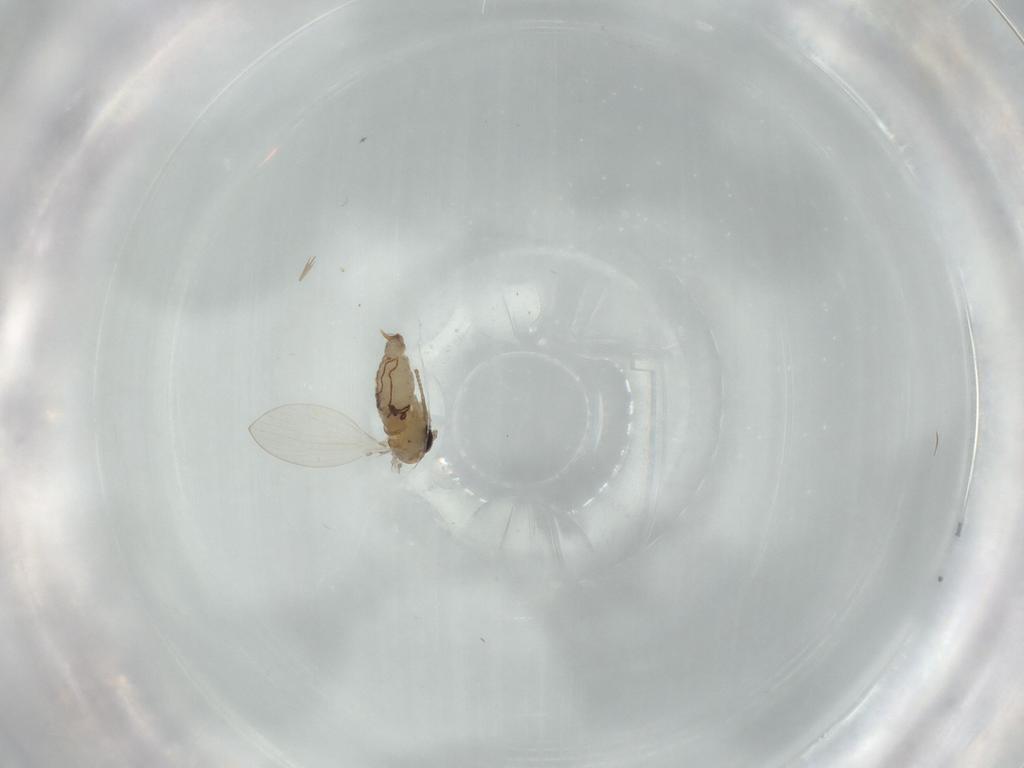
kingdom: Animalia
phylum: Arthropoda
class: Insecta
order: Diptera
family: Psychodidae
